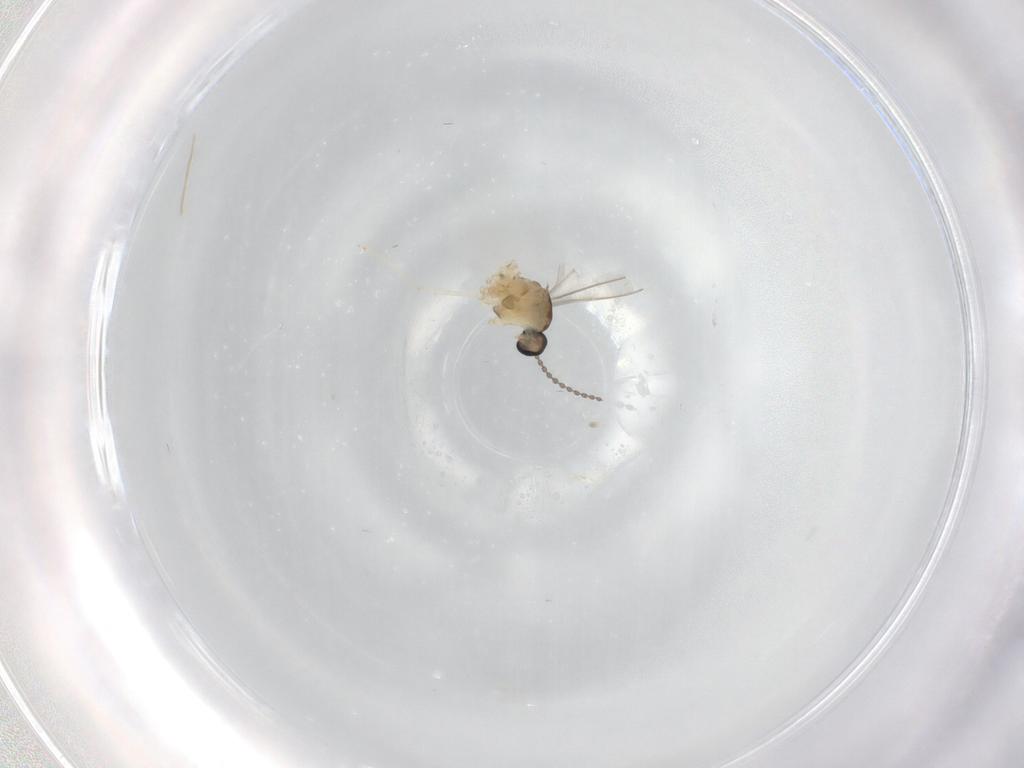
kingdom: Animalia
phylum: Arthropoda
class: Insecta
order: Diptera
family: Cecidomyiidae
